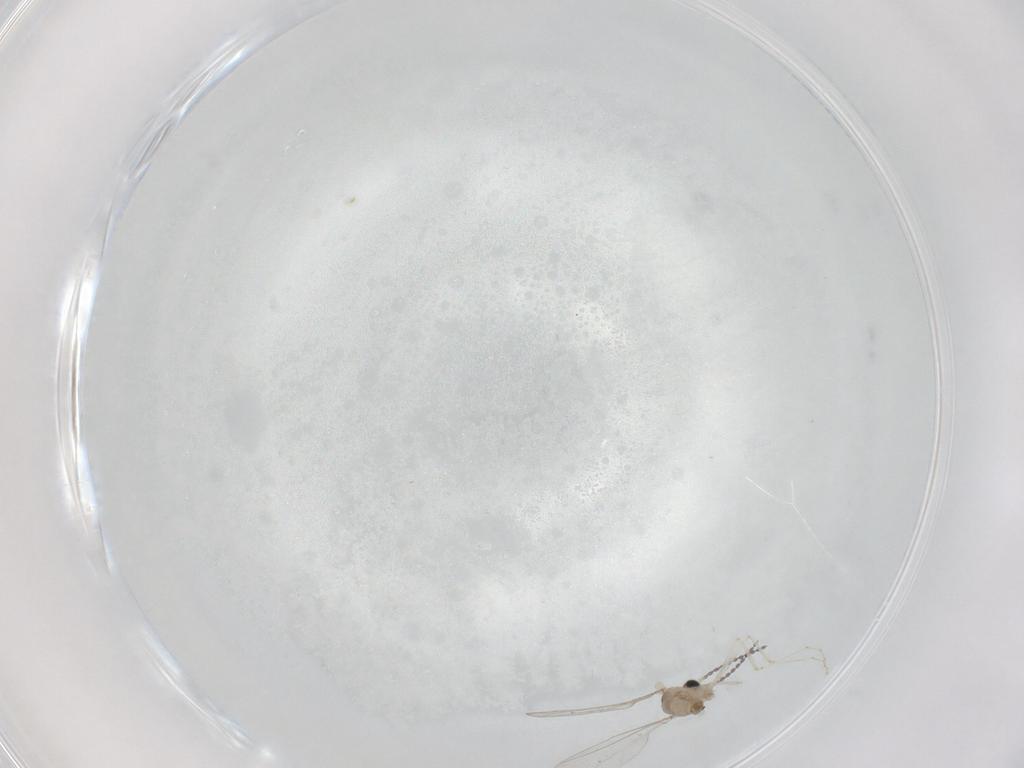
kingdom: Animalia
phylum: Arthropoda
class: Insecta
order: Diptera
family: Cecidomyiidae
